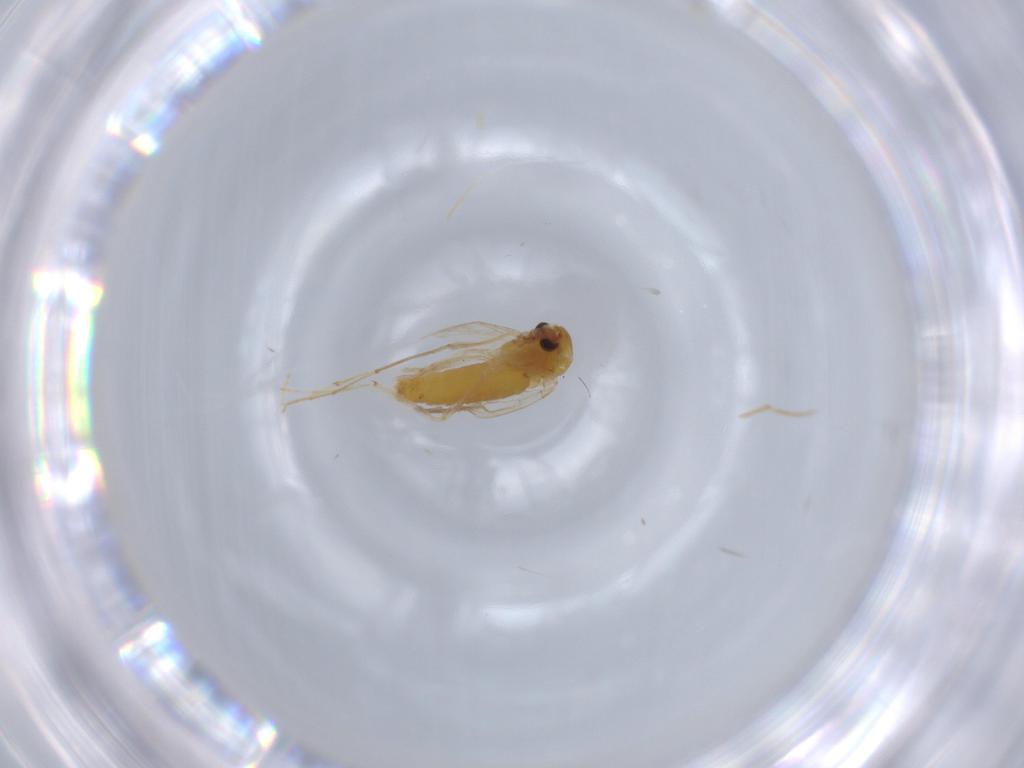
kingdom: Animalia
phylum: Arthropoda
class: Insecta
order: Diptera
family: Chironomidae
